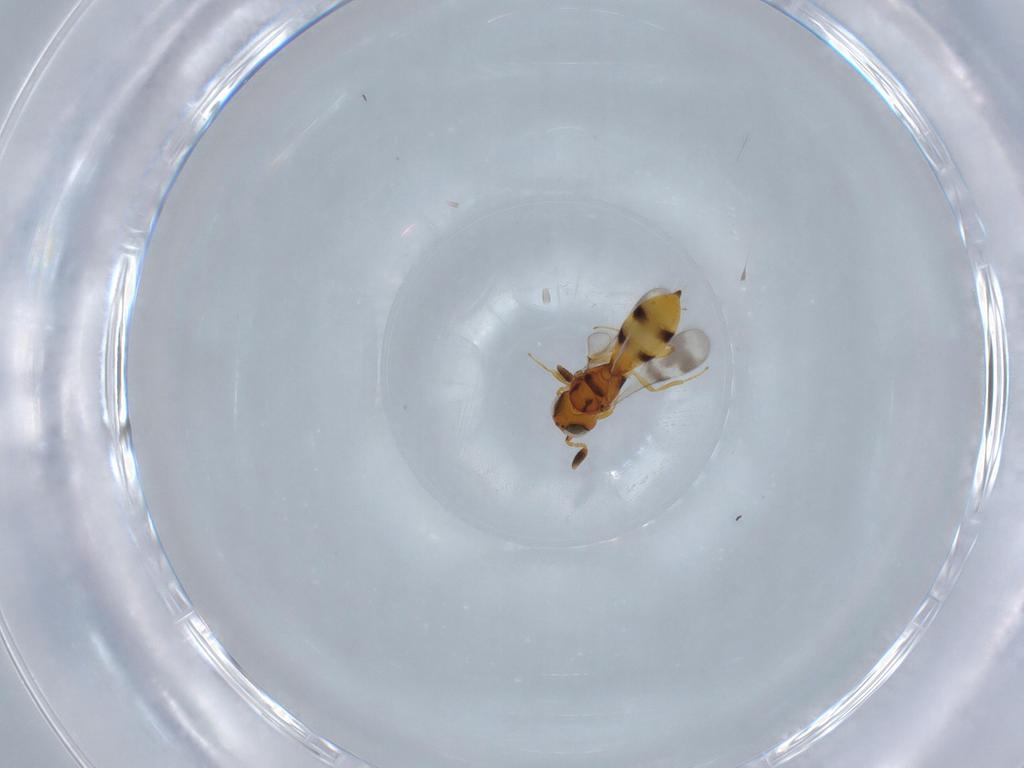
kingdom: Animalia
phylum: Arthropoda
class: Insecta
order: Hymenoptera
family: Scelionidae
